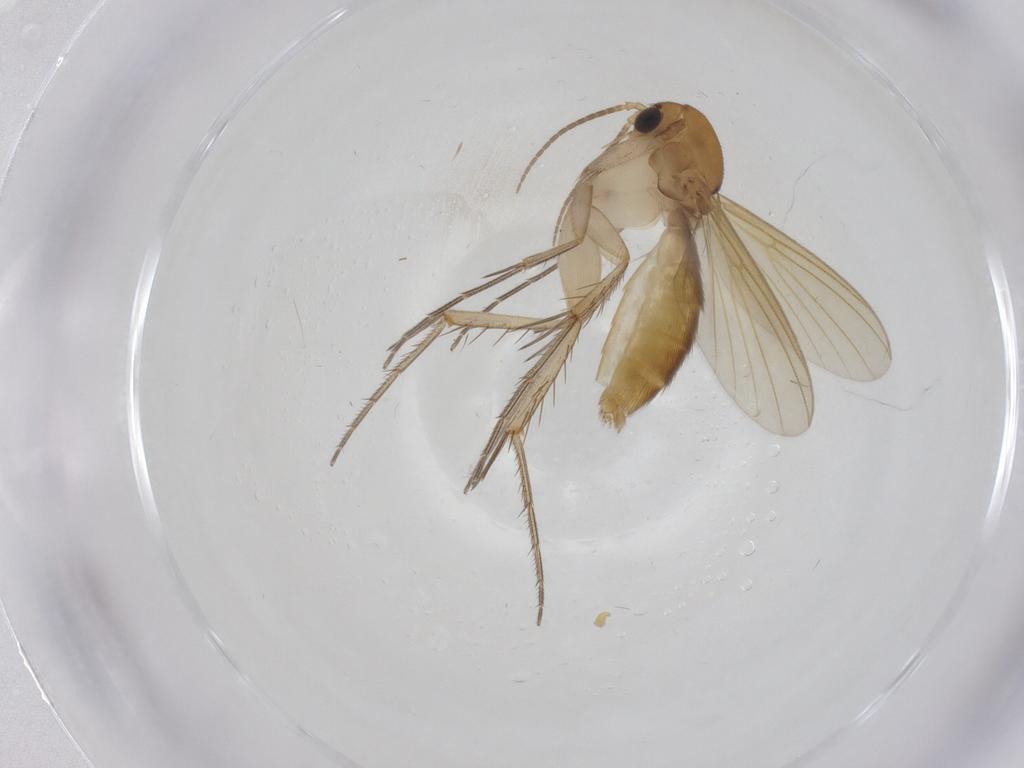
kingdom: Animalia
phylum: Arthropoda
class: Insecta
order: Diptera
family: Mycetophilidae
